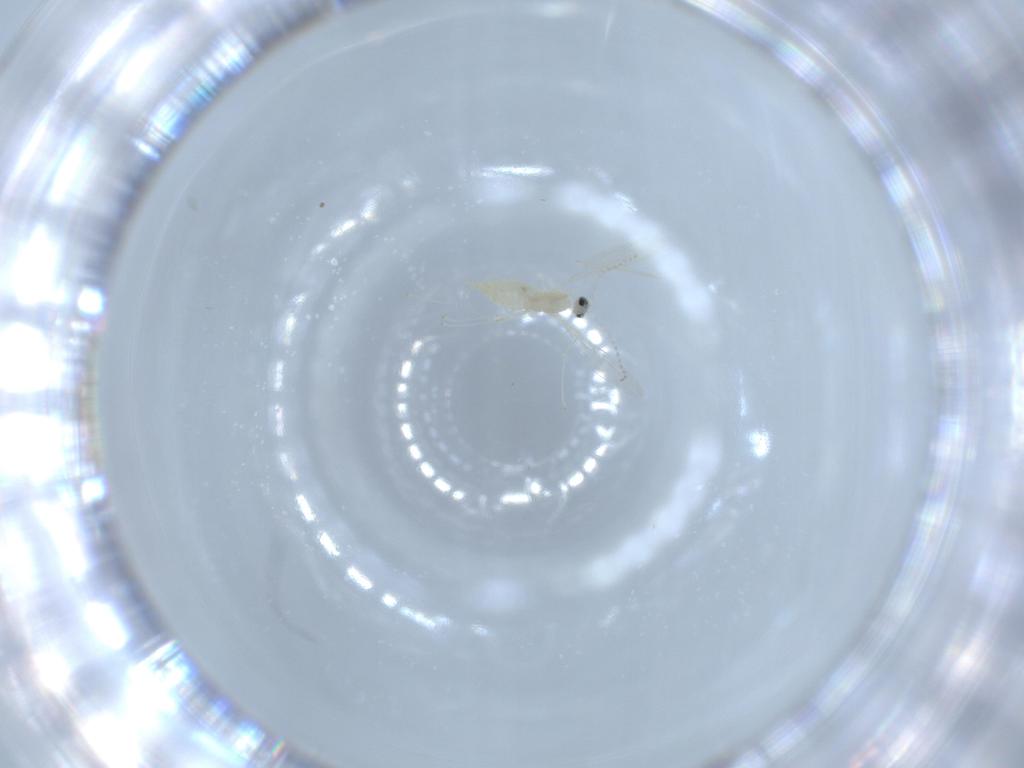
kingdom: Animalia
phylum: Arthropoda
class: Insecta
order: Diptera
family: Cecidomyiidae
